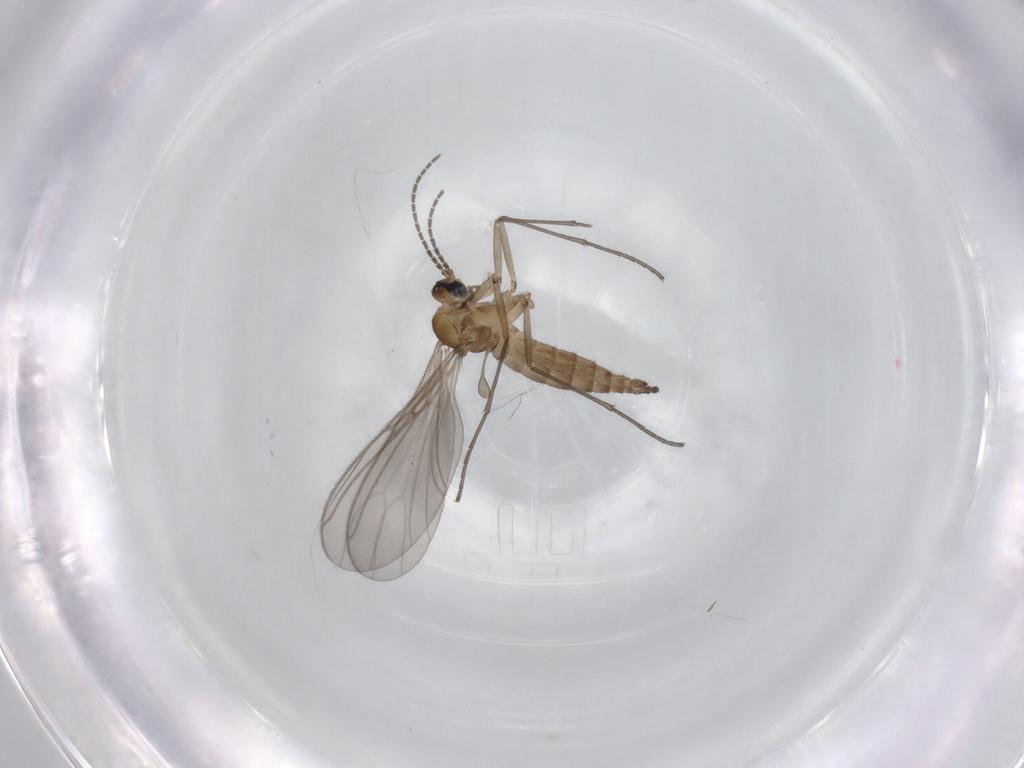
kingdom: Animalia
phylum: Arthropoda
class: Insecta
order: Diptera
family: Sciaridae
